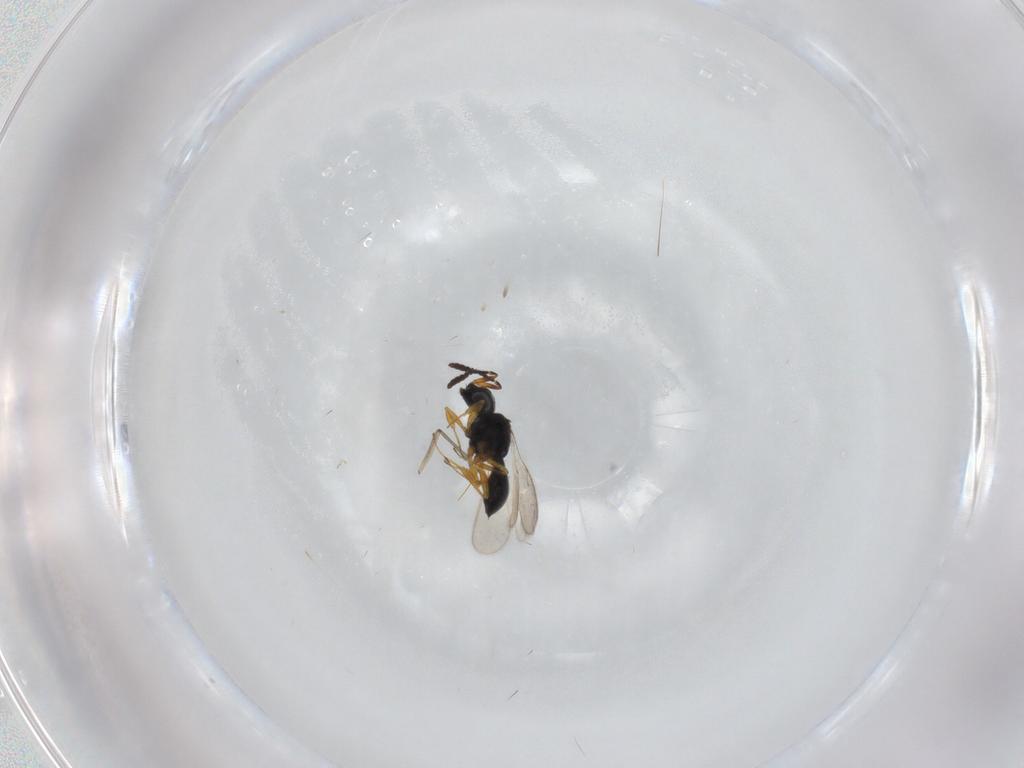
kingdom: Animalia
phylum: Arthropoda
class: Insecta
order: Hymenoptera
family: Scelionidae
